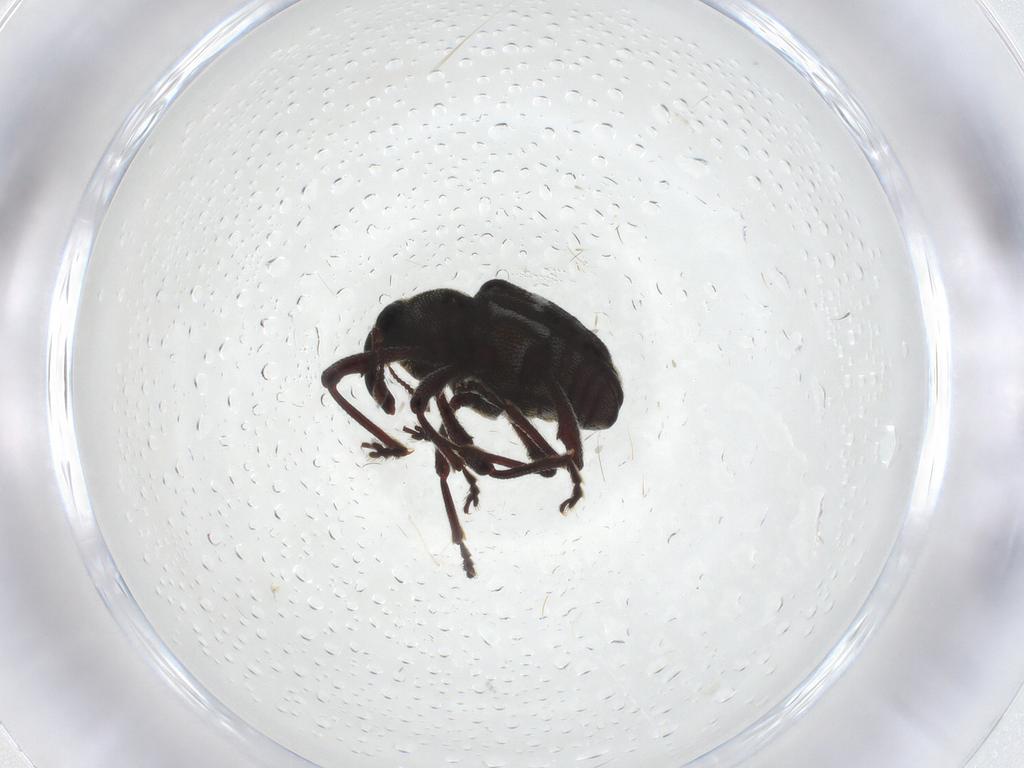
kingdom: Animalia
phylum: Arthropoda
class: Insecta
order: Coleoptera
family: Curculionidae
